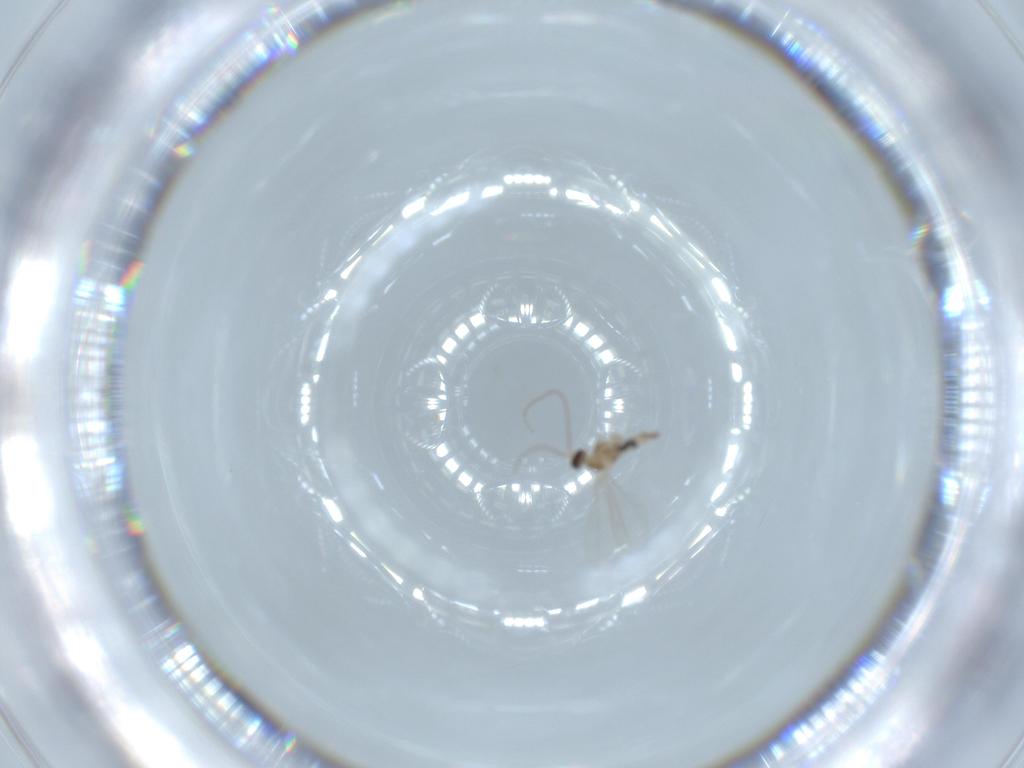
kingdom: Animalia
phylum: Arthropoda
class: Insecta
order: Diptera
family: Cecidomyiidae
